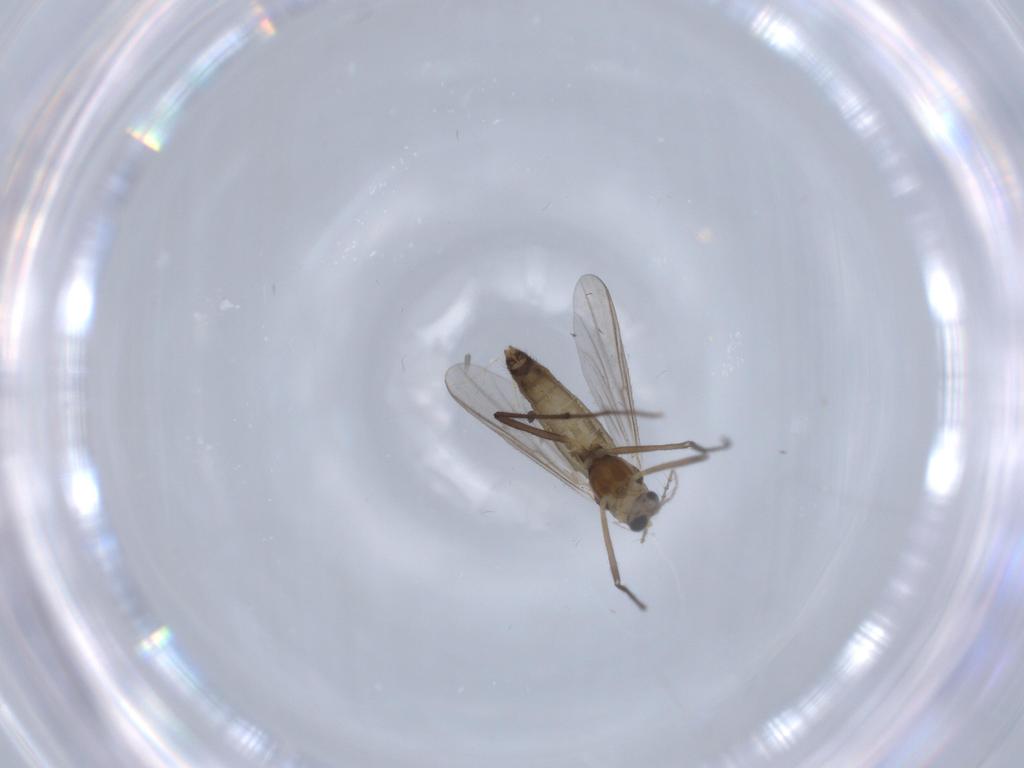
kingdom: Animalia
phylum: Arthropoda
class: Insecta
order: Diptera
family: Chironomidae
